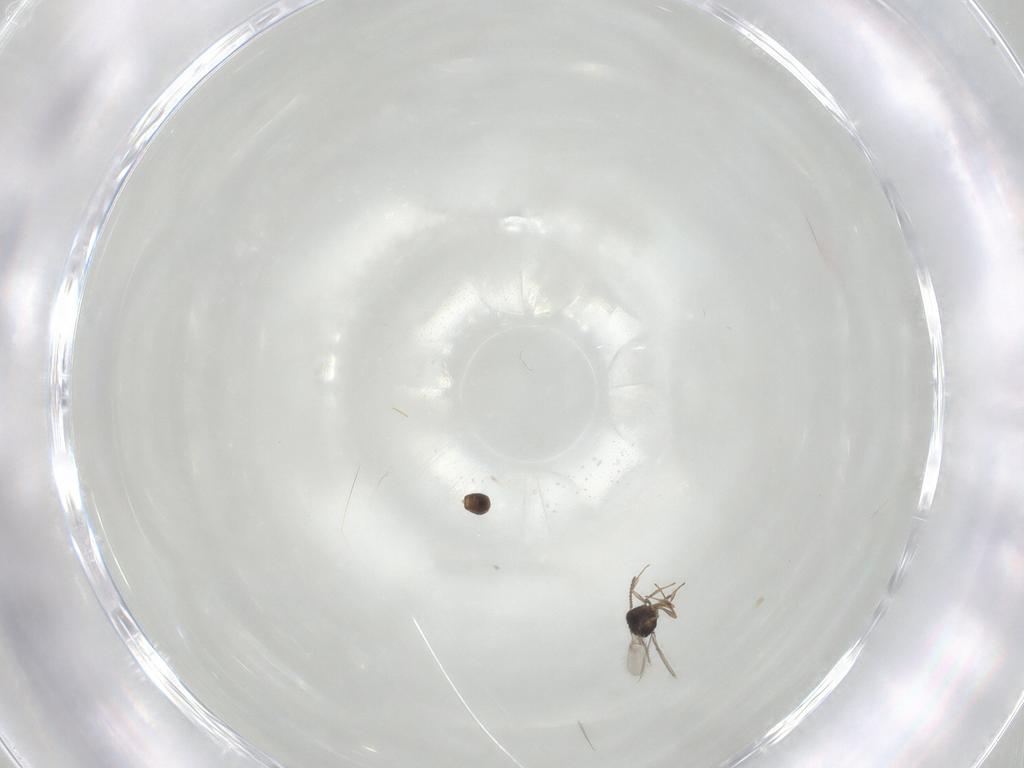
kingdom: Animalia
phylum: Arthropoda
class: Insecta
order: Hymenoptera
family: Scelionidae
